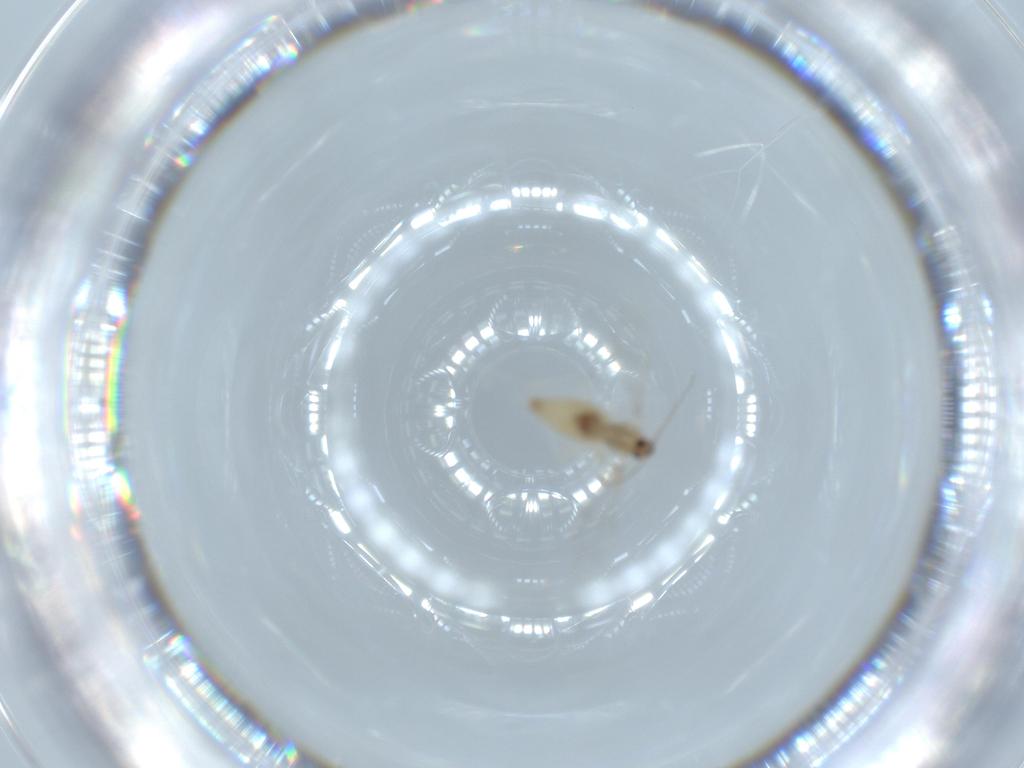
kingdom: Animalia
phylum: Arthropoda
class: Insecta
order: Diptera
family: Cecidomyiidae
